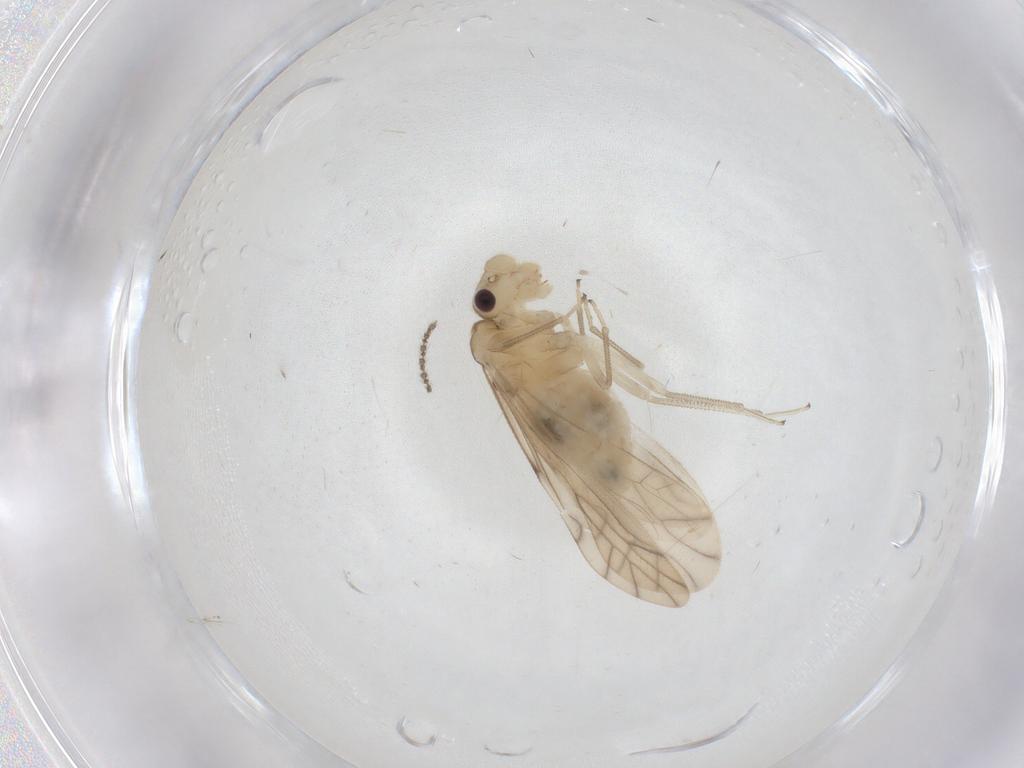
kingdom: Animalia
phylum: Arthropoda
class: Insecta
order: Psocodea
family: Caeciliusidae
